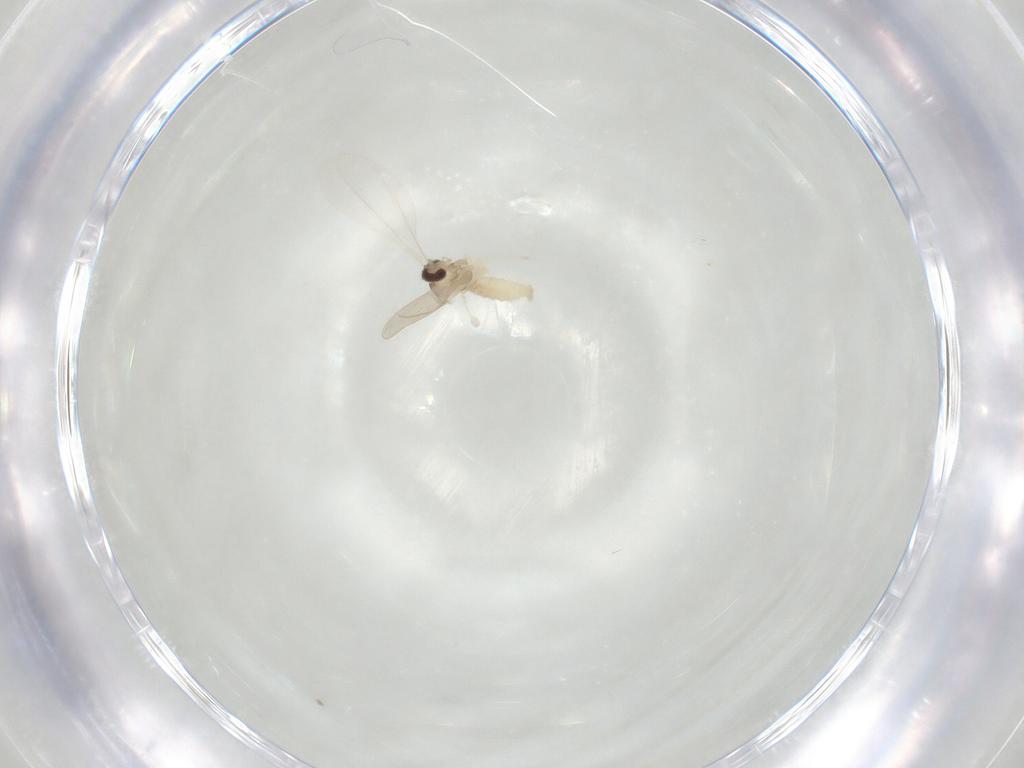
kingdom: Animalia
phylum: Arthropoda
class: Insecta
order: Diptera
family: Cecidomyiidae
